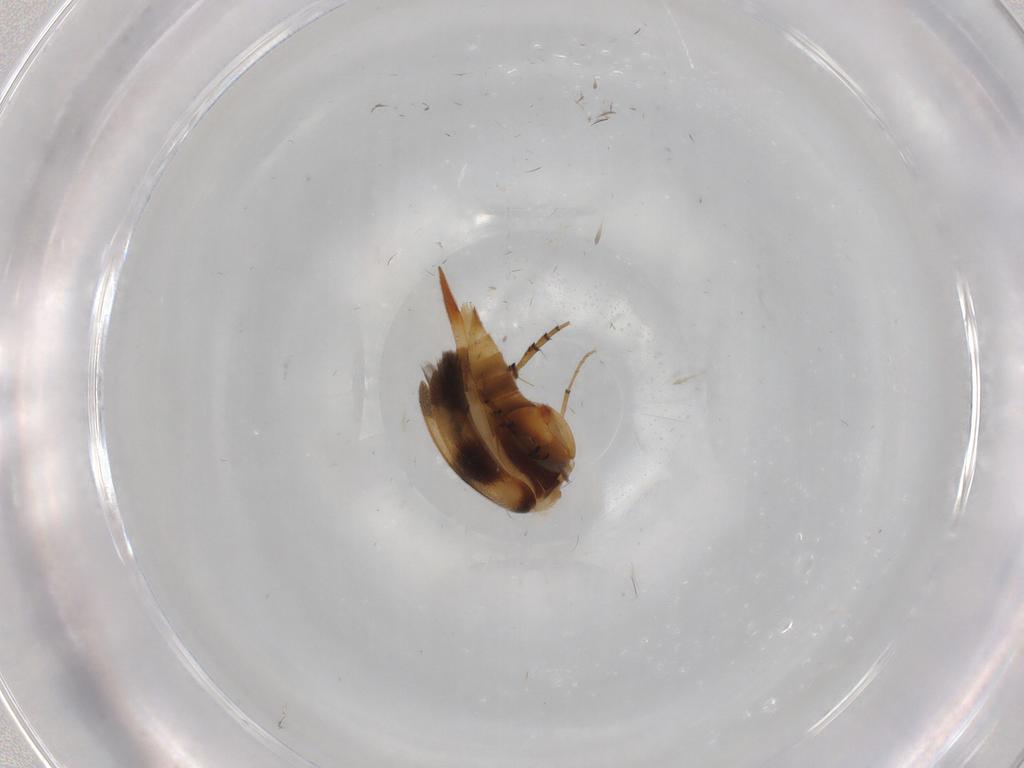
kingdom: Animalia
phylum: Arthropoda
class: Insecta
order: Coleoptera
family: Mordellidae
